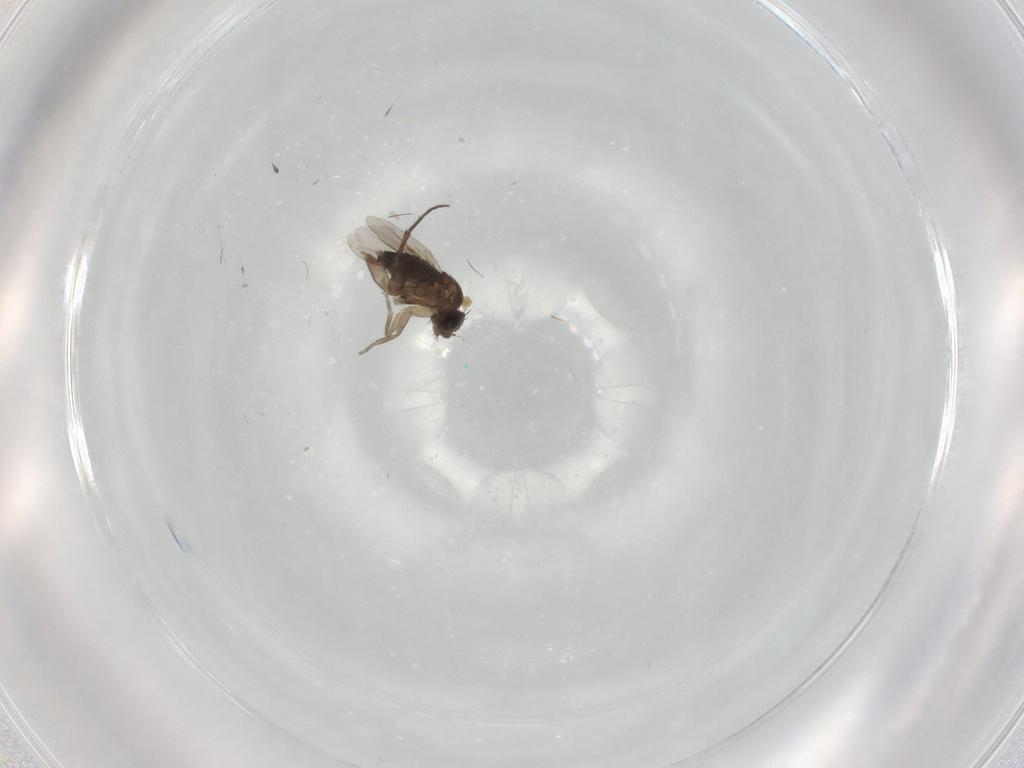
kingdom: Animalia
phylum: Arthropoda
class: Insecta
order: Diptera
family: Phoridae
